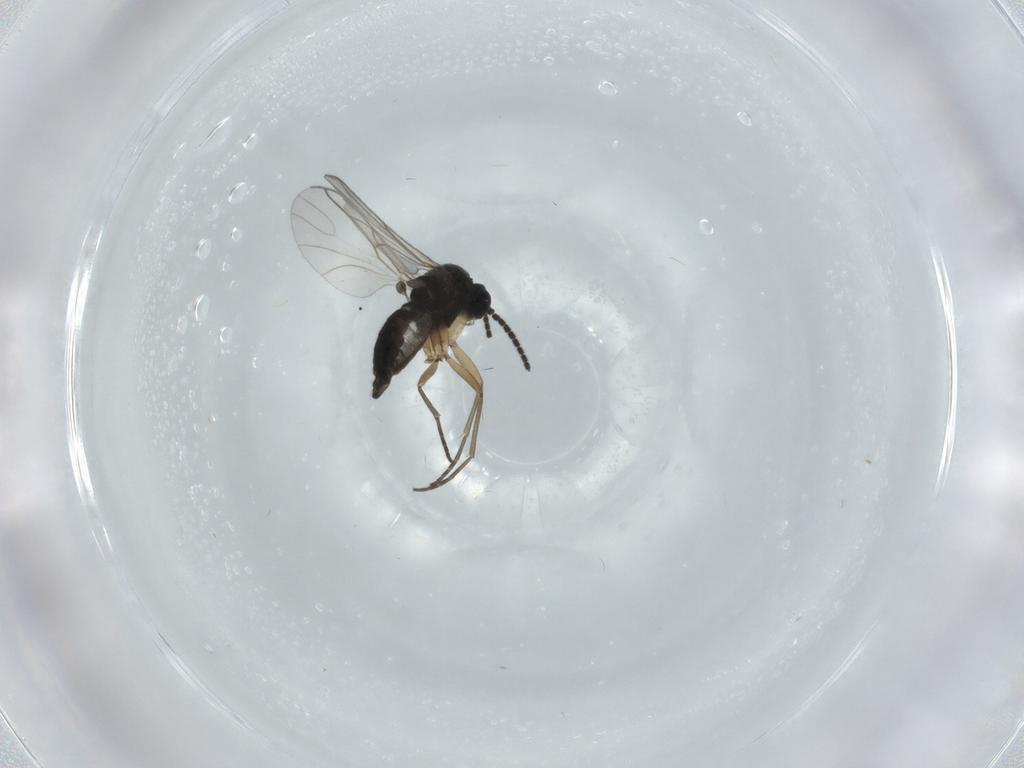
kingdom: Animalia
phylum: Arthropoda
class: Insecta
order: Diptera
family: Sciaridae
